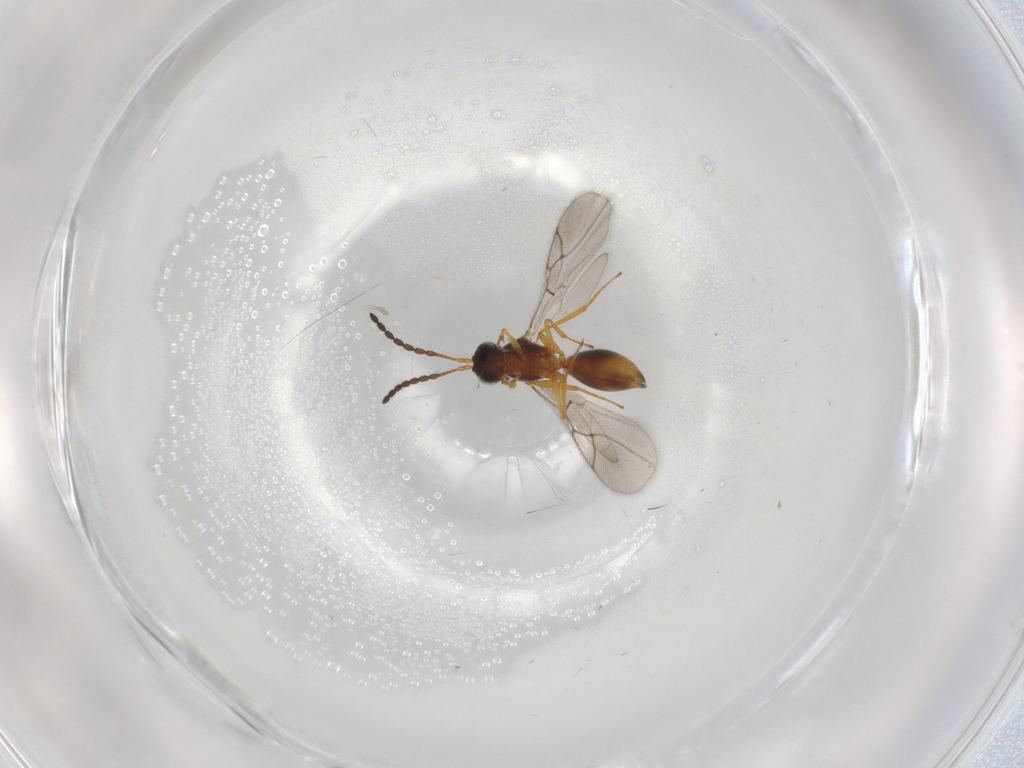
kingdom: Animalia
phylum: Arthropoda
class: Insecta
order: Hymenoptera
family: Figitidae
